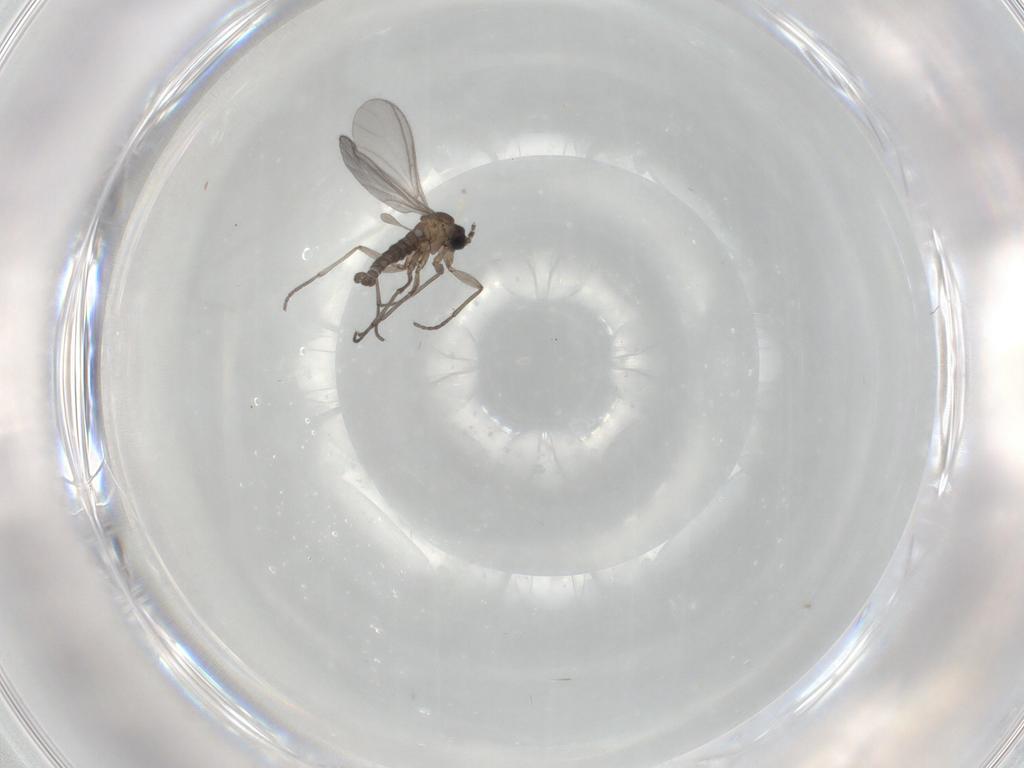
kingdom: Animalia
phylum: Arthropoda
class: Insecta
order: Diptera
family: Sciaridae
